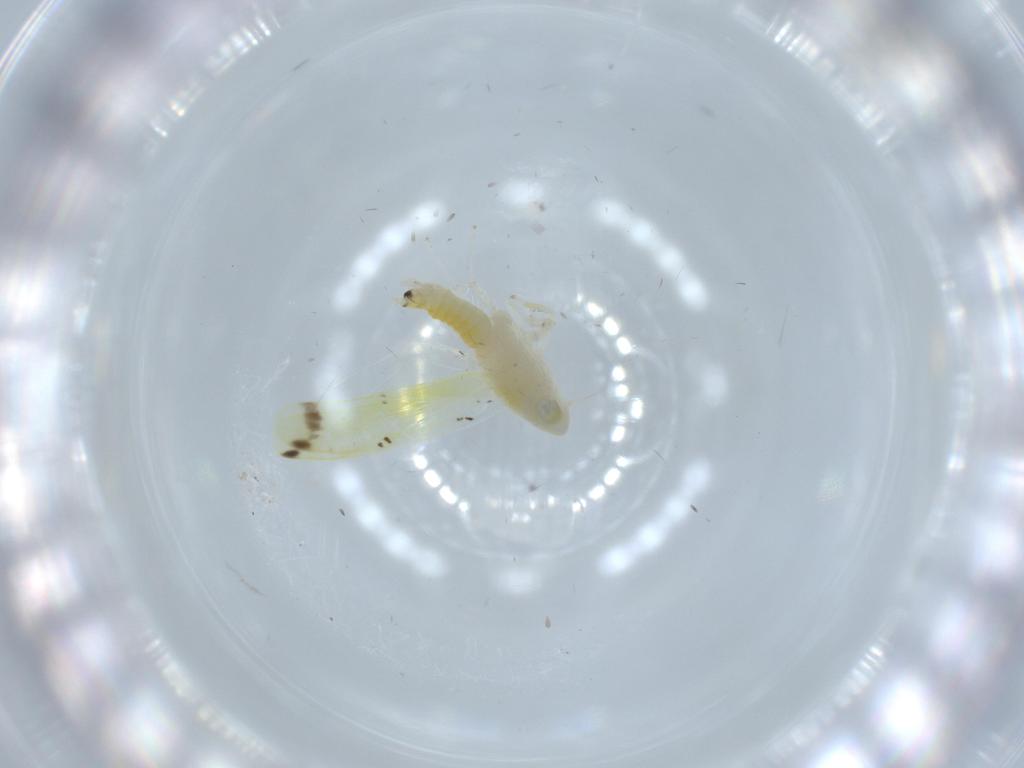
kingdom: Animalia
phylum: Arthropoda
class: Insecta
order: Hemiptera
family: Cicadellidae
